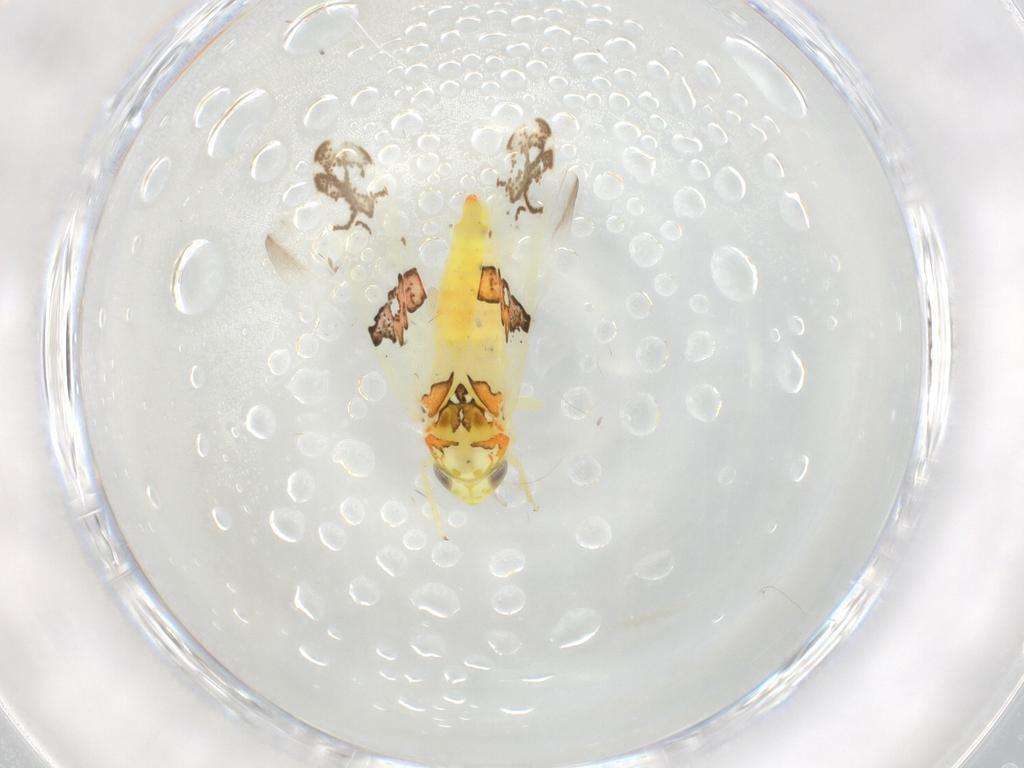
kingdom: Animalia
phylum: Arthropoda
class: Insecta
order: Hemiptera
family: Cicadellidae
